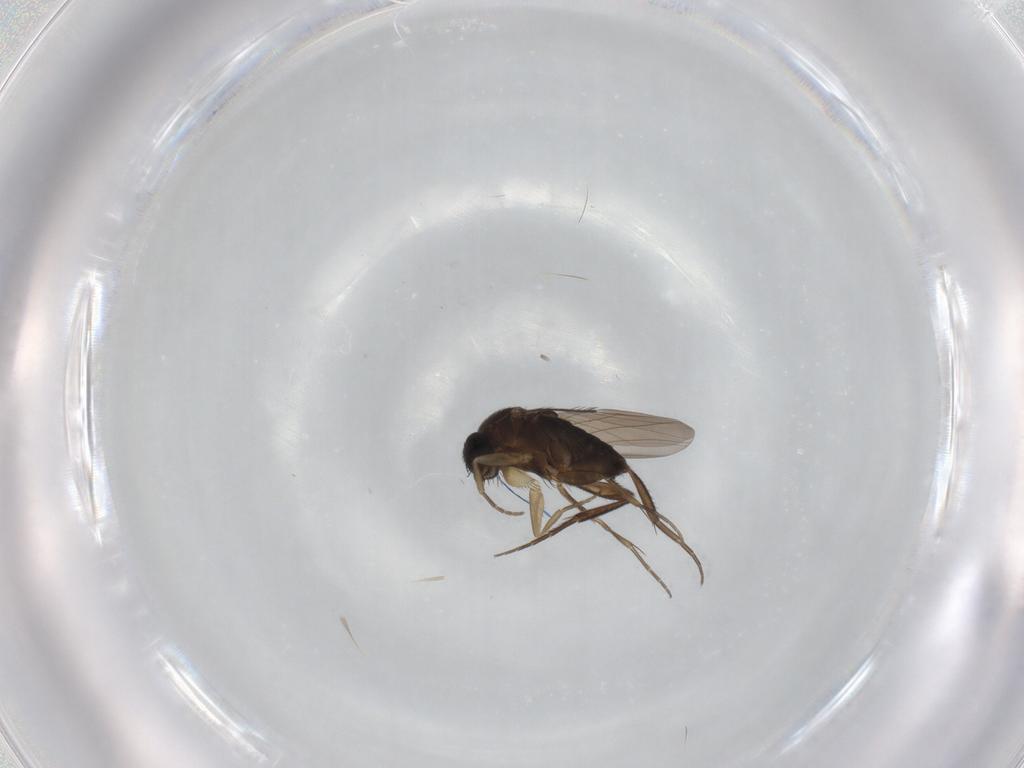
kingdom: Animalia
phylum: Arthropoda
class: Insecta
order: Diptera
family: Phoridae
